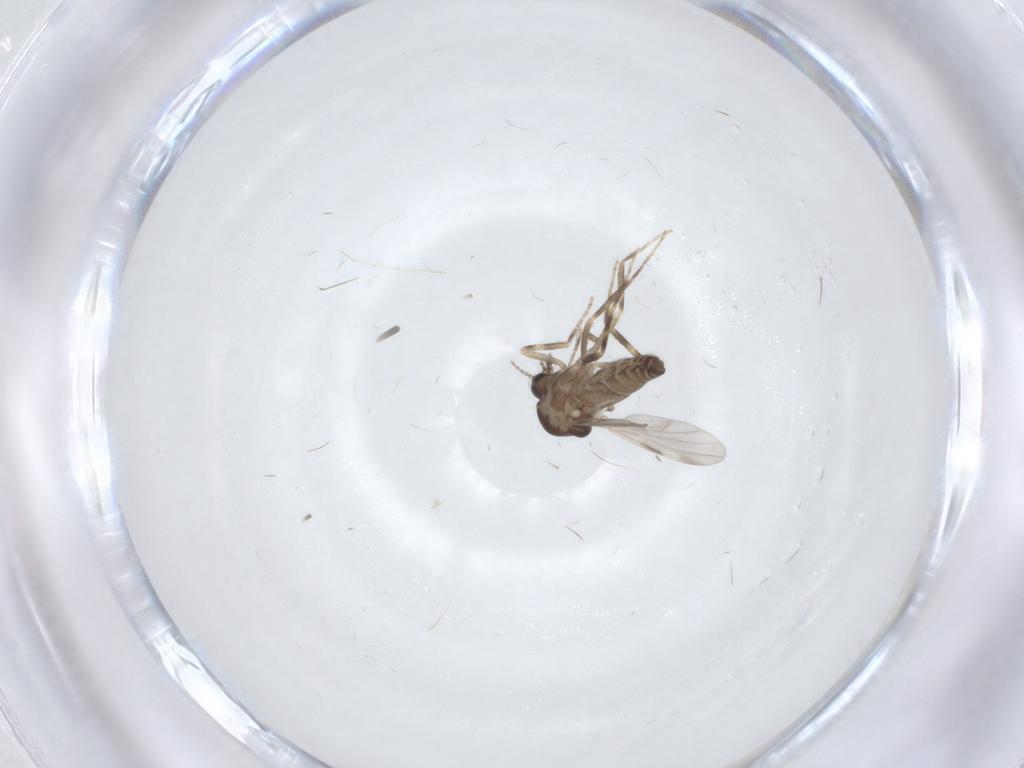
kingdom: Animalia
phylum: Arthropoda
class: Insecta
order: Diptera
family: Ceratopogonidae
